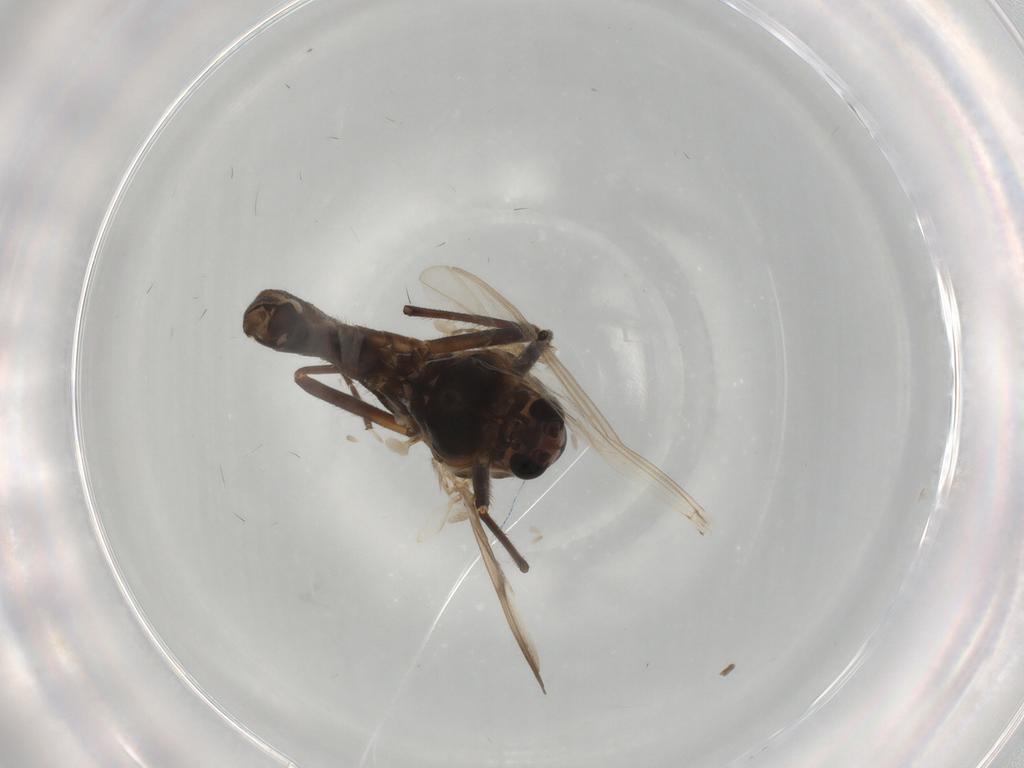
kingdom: Animalia
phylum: Arthropoda
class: Insecta
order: Diptera
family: Chironomidae
